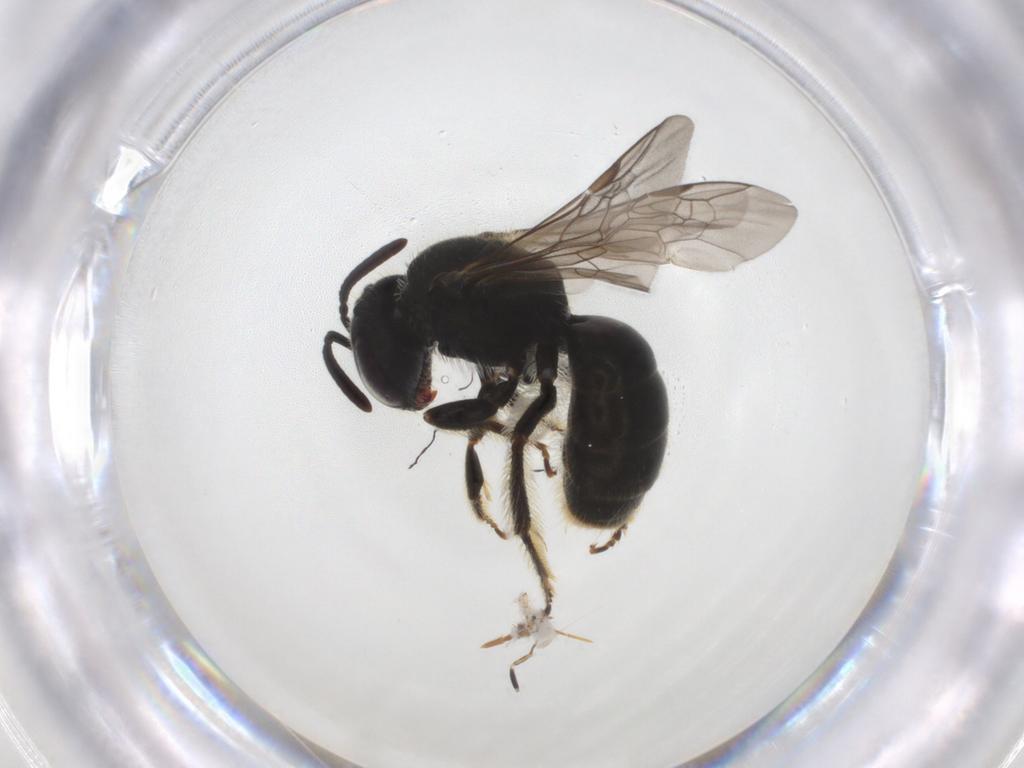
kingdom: Animalia
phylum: Arthropoda
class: Insecta
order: Hymenoptera
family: Halictidae
